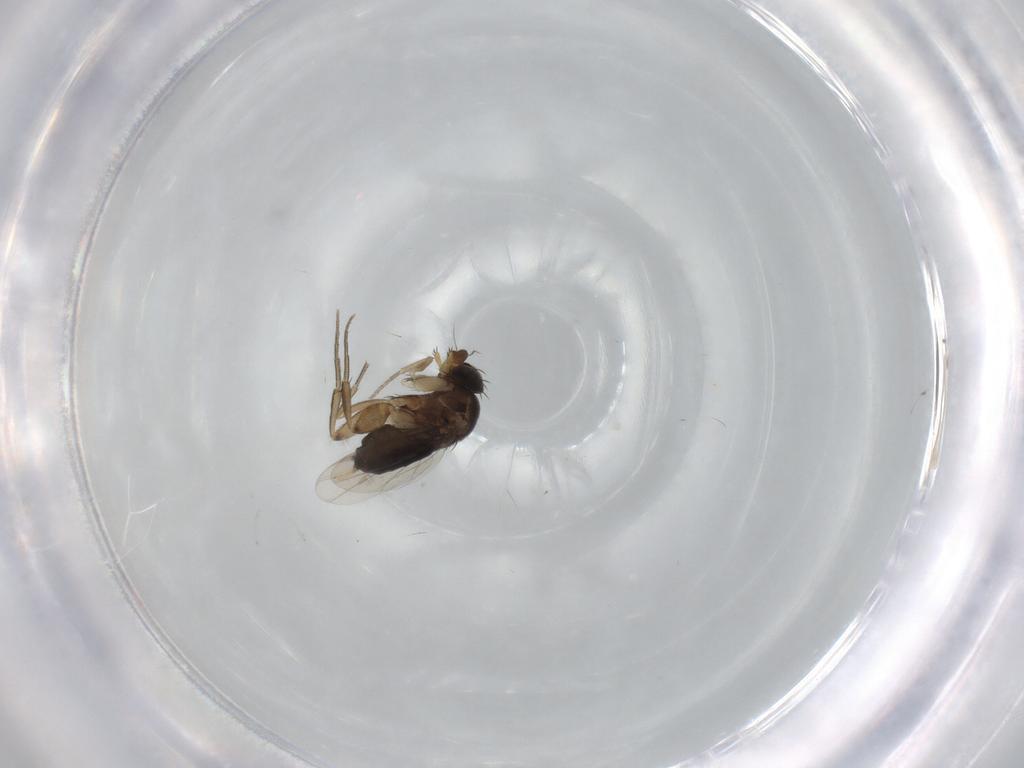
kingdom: Animalia
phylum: Arthropoda
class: Insecta
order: Diptera
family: Phoridae
